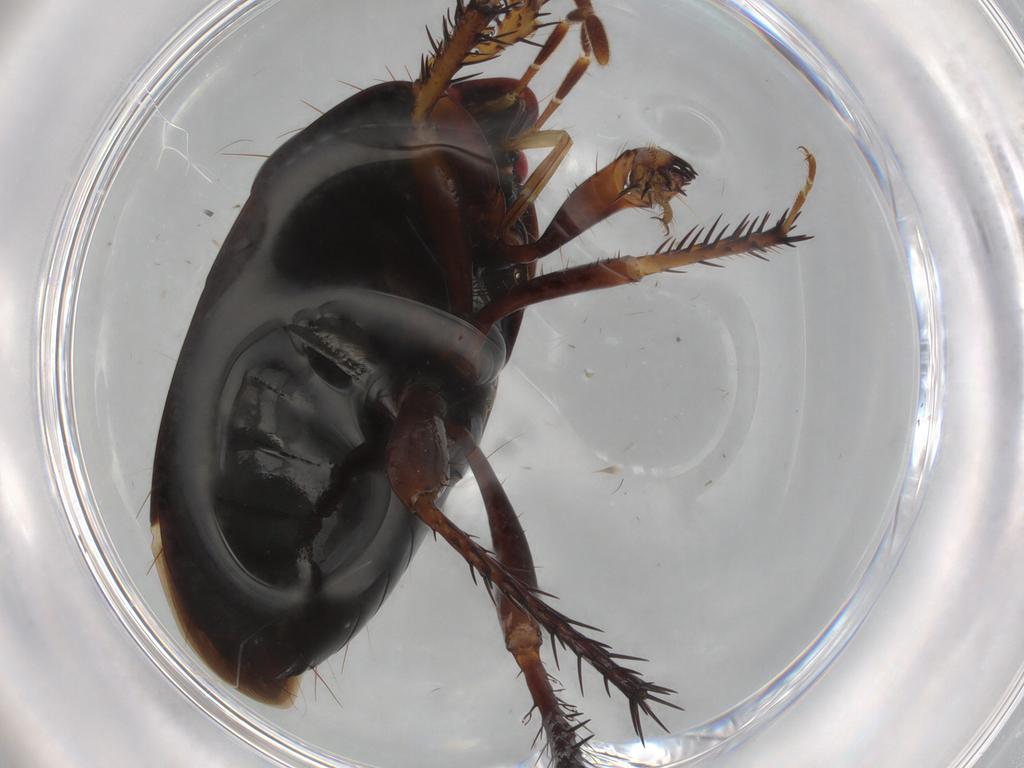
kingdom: Animalia
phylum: Arthropoda
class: Insecta
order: Hemiptera
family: Cydnidae
